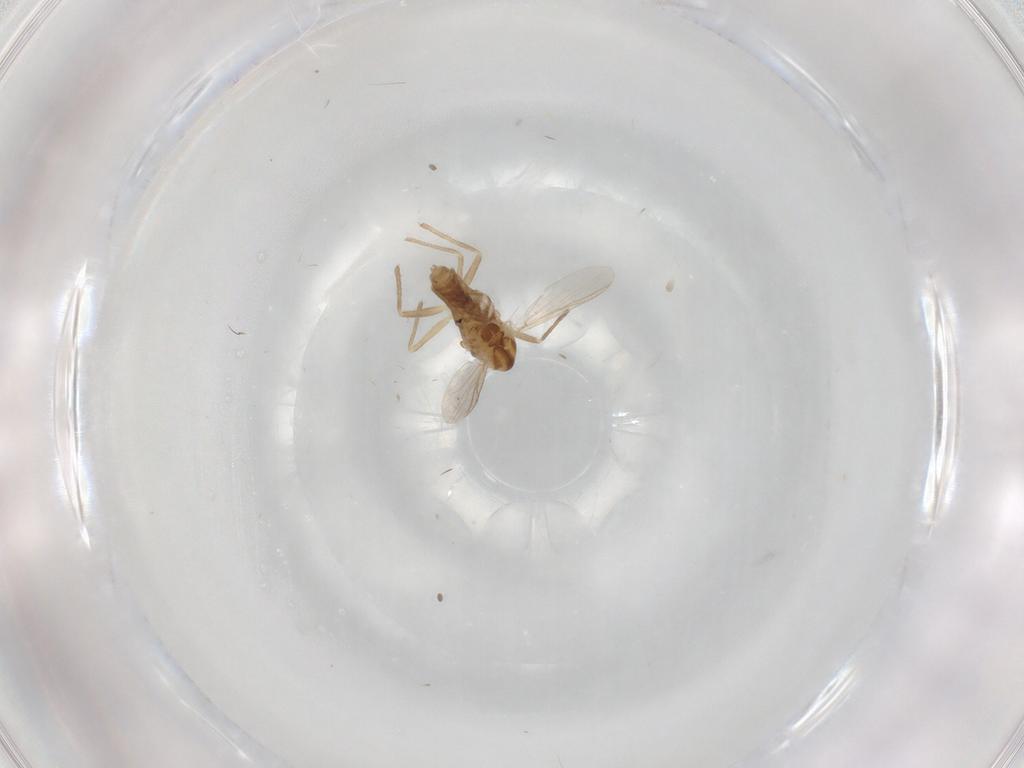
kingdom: Animalia
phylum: Arthropoda
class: Insecta
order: Diptera
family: Chironomidae
